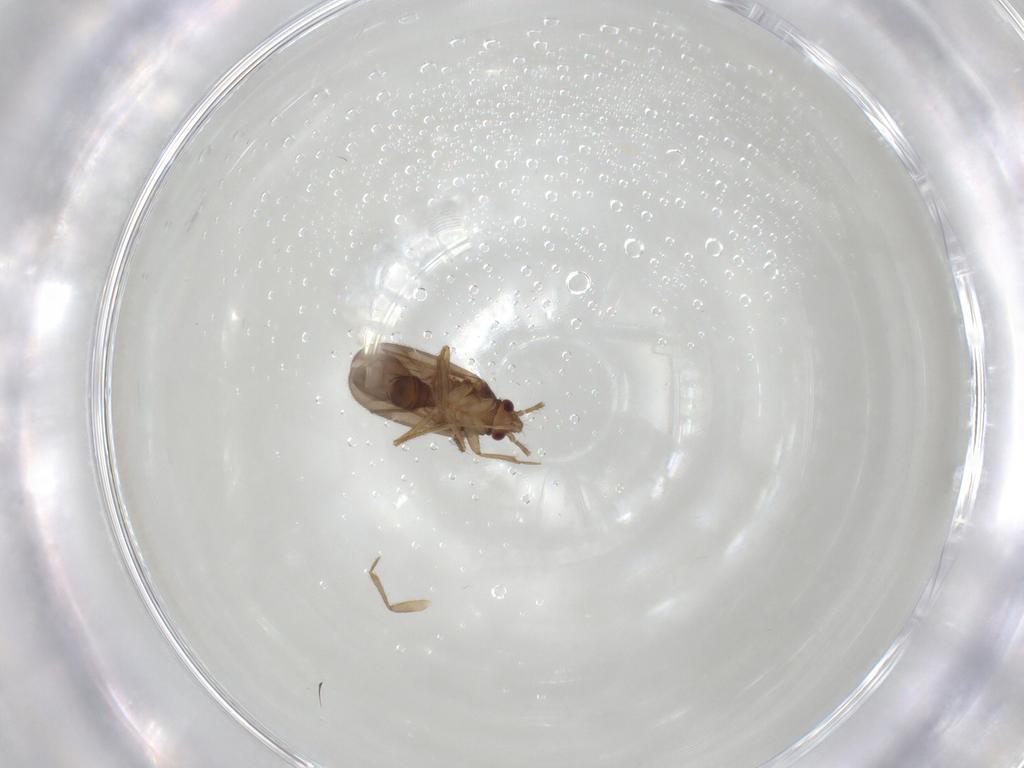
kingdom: Animalia
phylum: Arthropoda
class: Insecta
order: Hemiptera
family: Ceratocombidae
